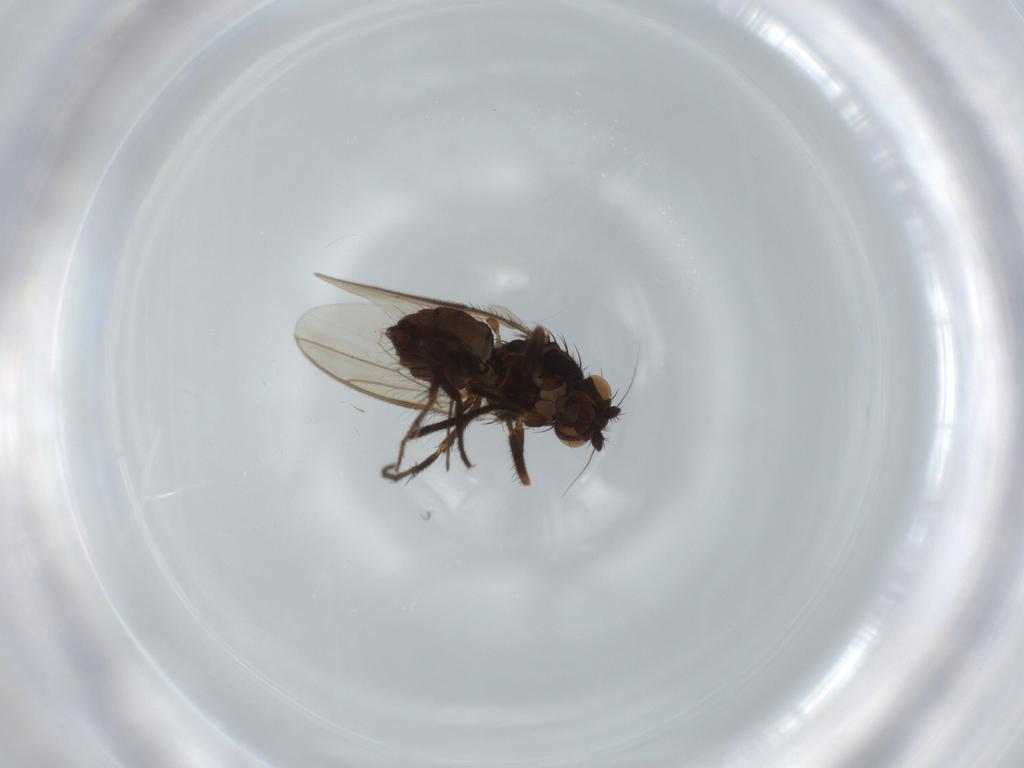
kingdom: Animalia
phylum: Arthropoda
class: Insecta
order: Diptera
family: Sphaeroceridae
